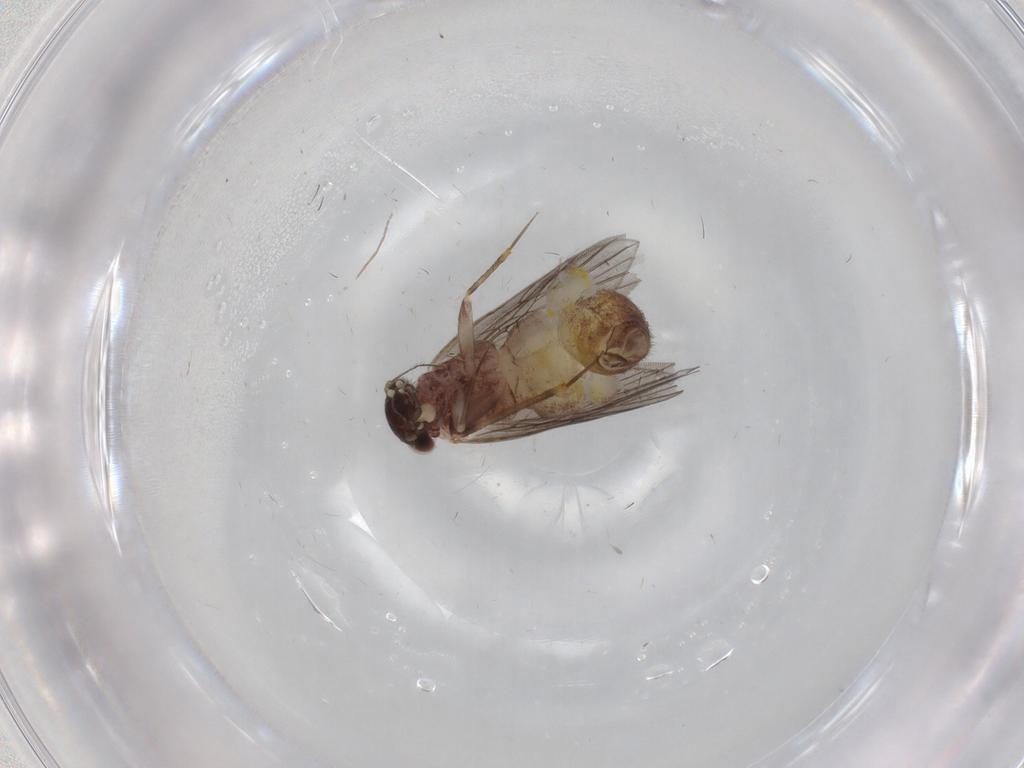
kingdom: Animalia
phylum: Arthropoda
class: Insecta
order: Psocodea
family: Lepidopsocidae
